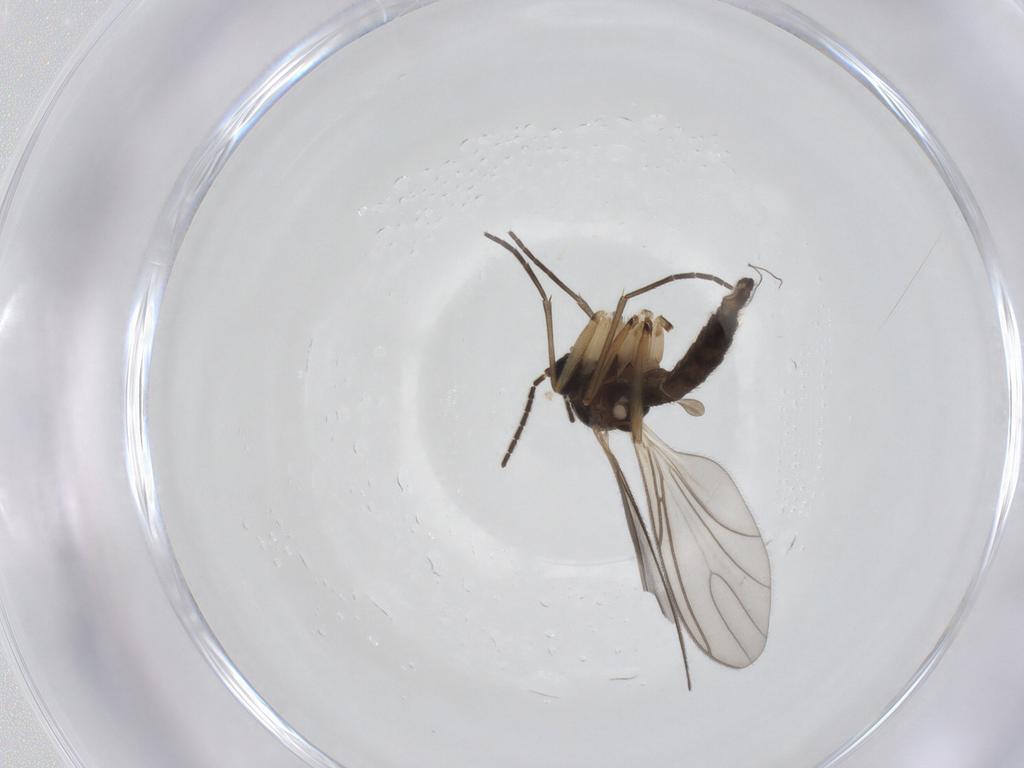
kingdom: Animalia
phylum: Arthropoda
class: Insecta
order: Diptera
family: Sciaridae
